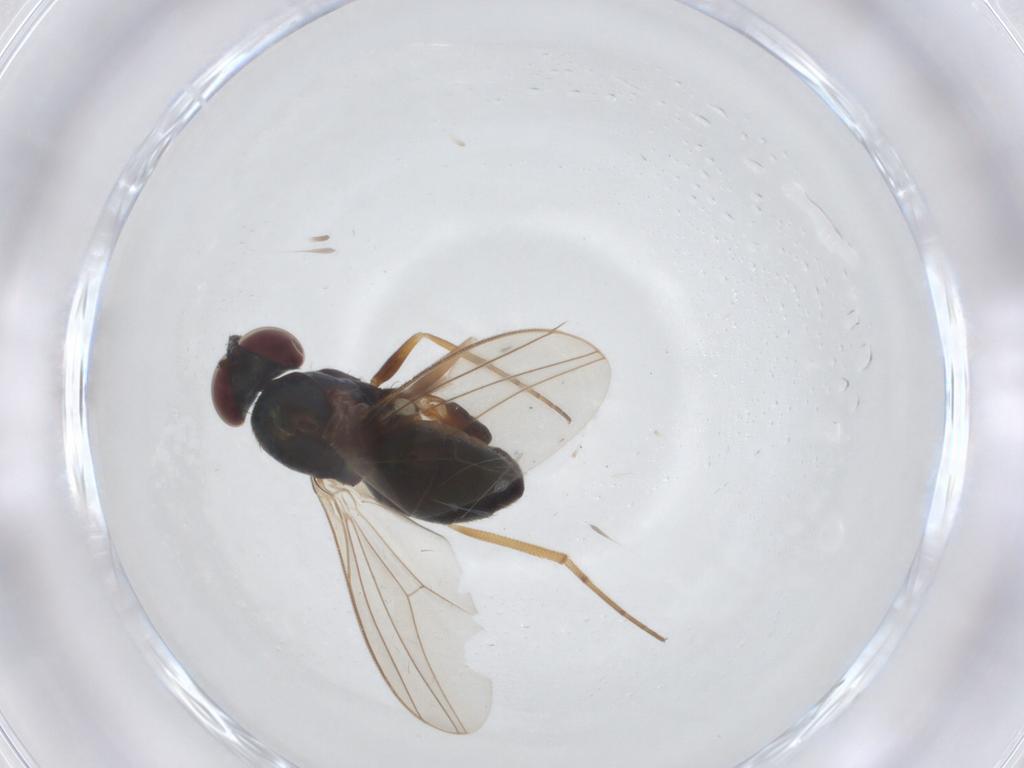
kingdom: Animalia
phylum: Arthropoda
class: Insecta
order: Diptera
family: Dolichopodidae
